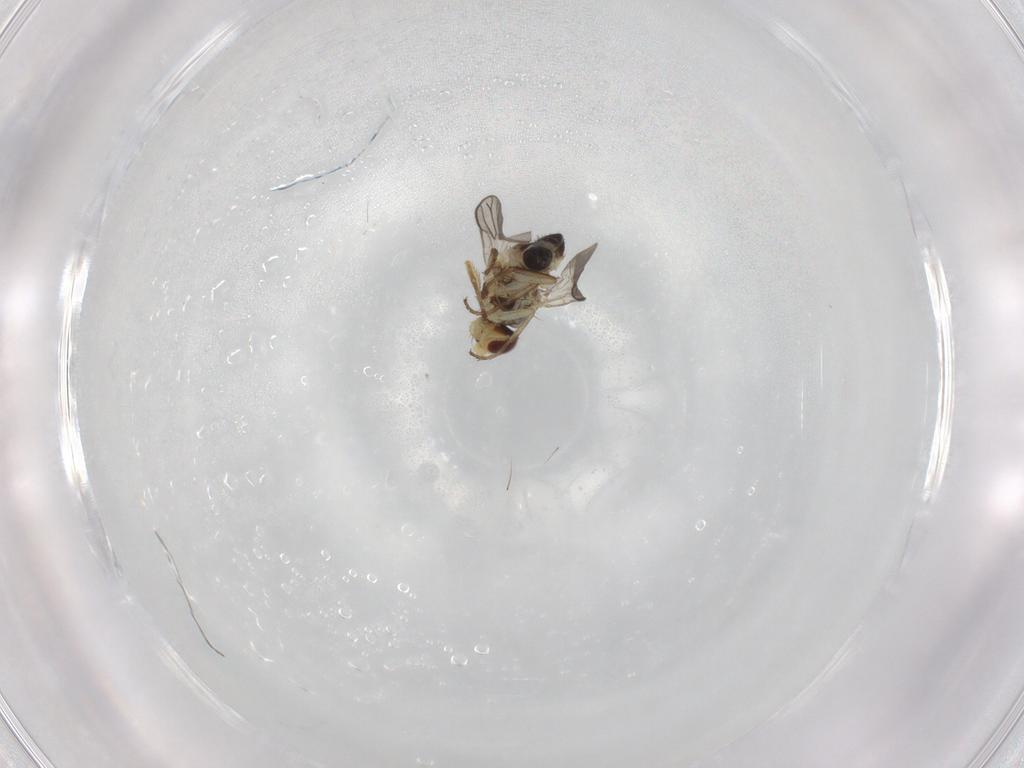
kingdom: Animalia
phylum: Arthropoda
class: Insecta
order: Diptera
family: Agromyzidae
